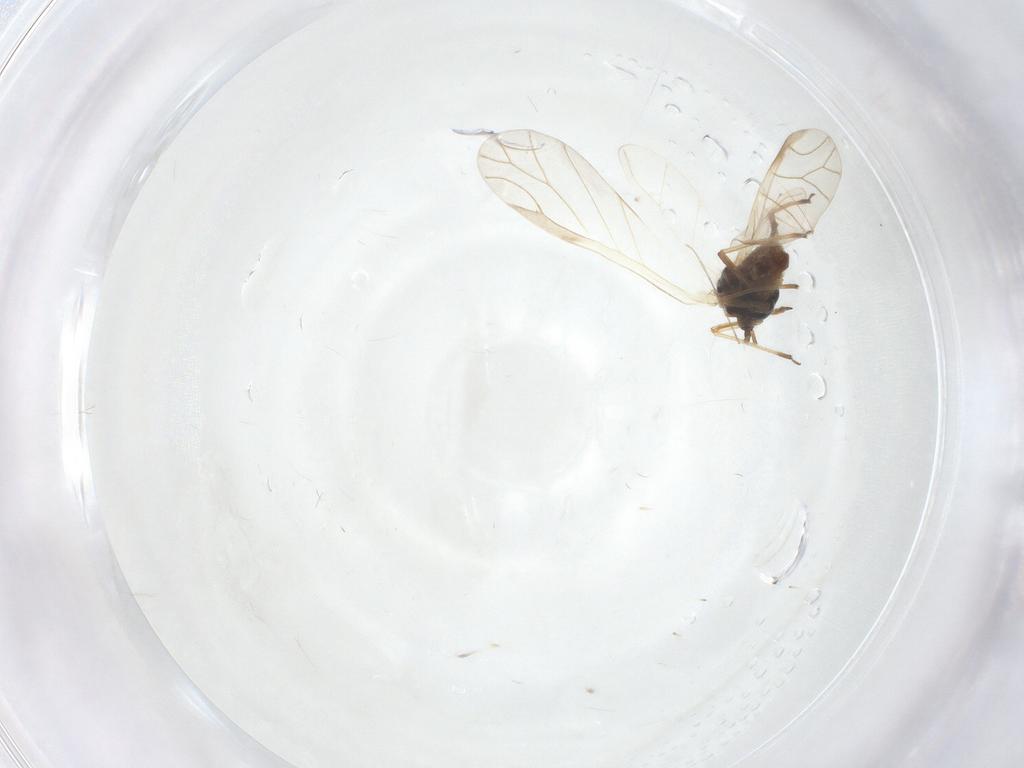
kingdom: Animalia
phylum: Arthropoda
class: Insecta
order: Hemiptera
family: Aphididae
